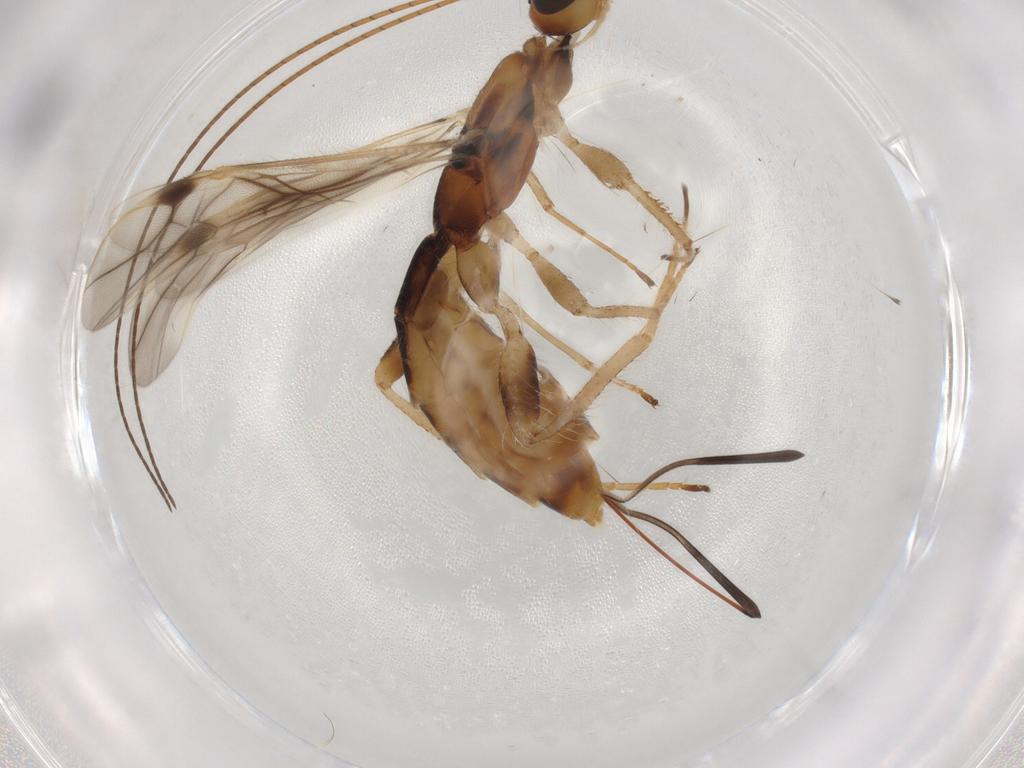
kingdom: Animalia
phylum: Arthropoda
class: Insecta
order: Hymenoptera
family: Braconidae
